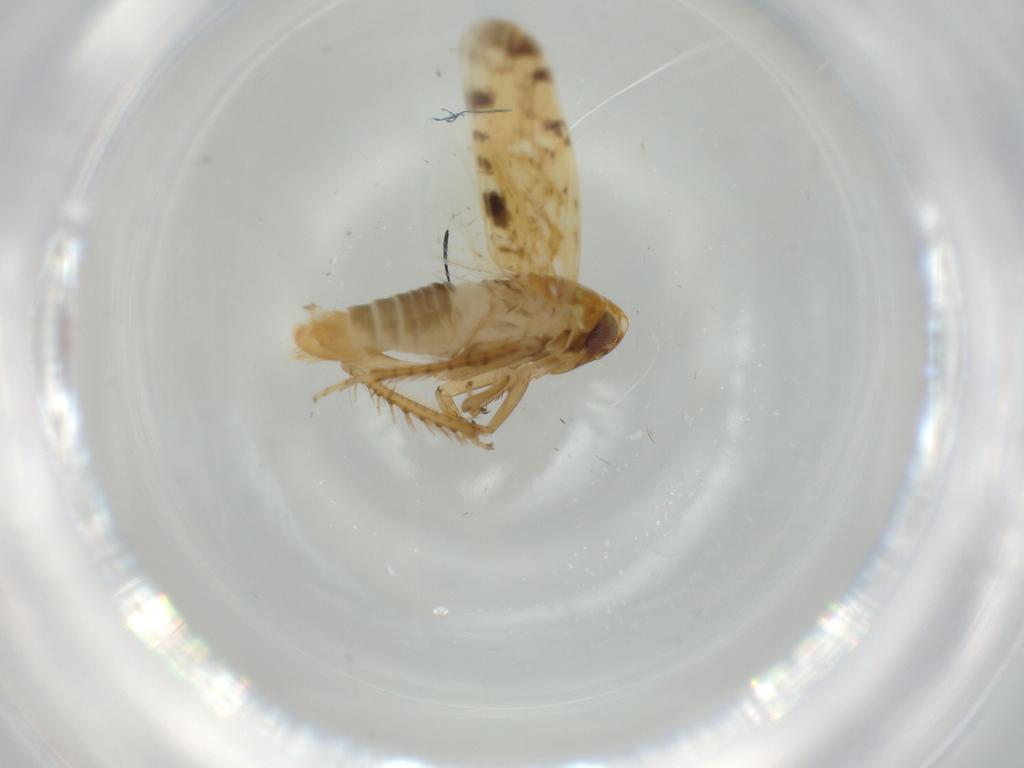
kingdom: Animalia
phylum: Arthropoda
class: Insecta
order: Hemiptera
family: Cicadellidae
